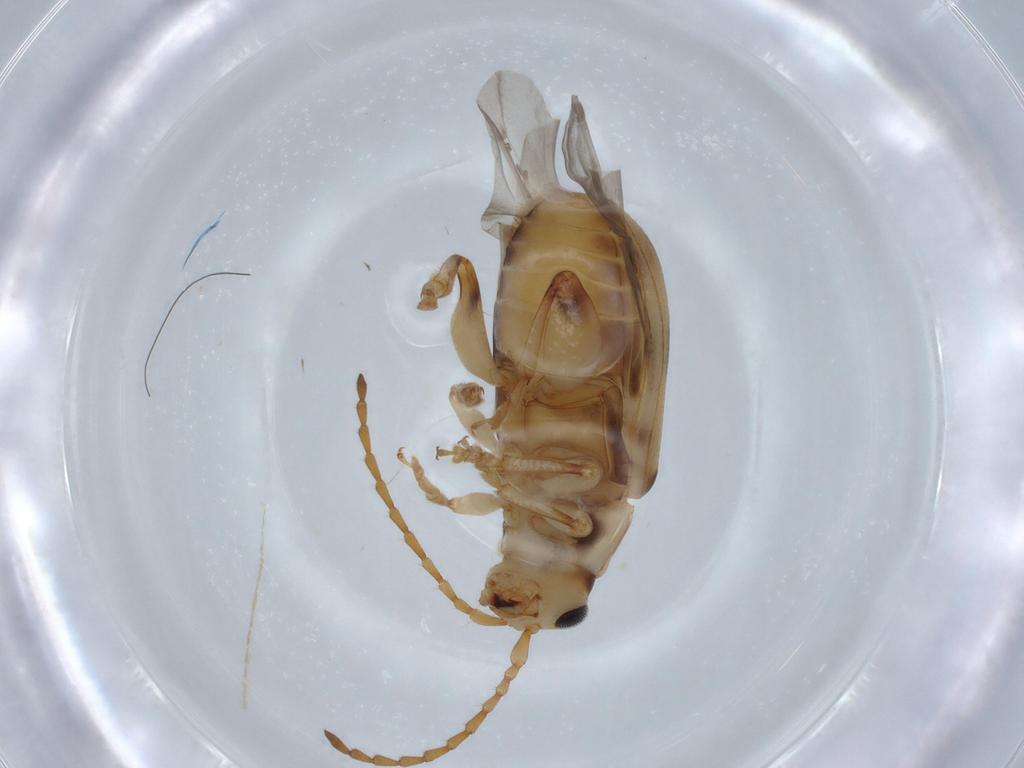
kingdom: Animalia
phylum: Arthropoda
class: Insecta
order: Coleoptera
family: Chrysomelidae
